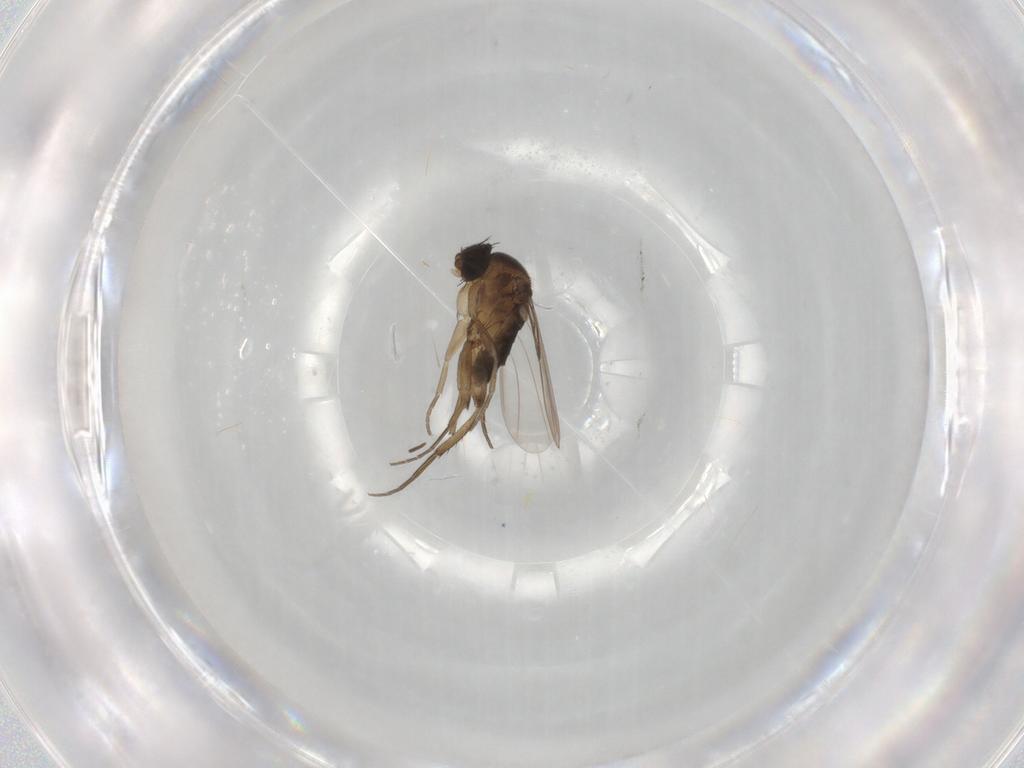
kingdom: Animalia
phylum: Arthropoda
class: Insecta
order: Diptera
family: Phoridae
